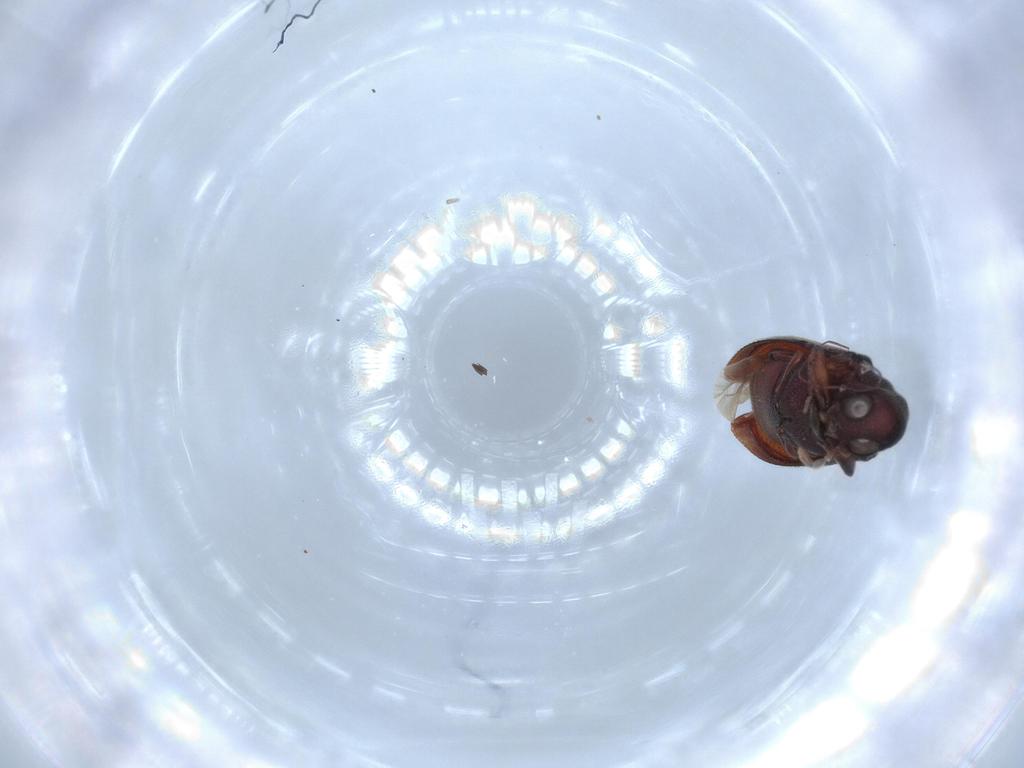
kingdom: Animalia
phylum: Arthropoda
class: Insecta
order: Coleoptera
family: Anobiidae
